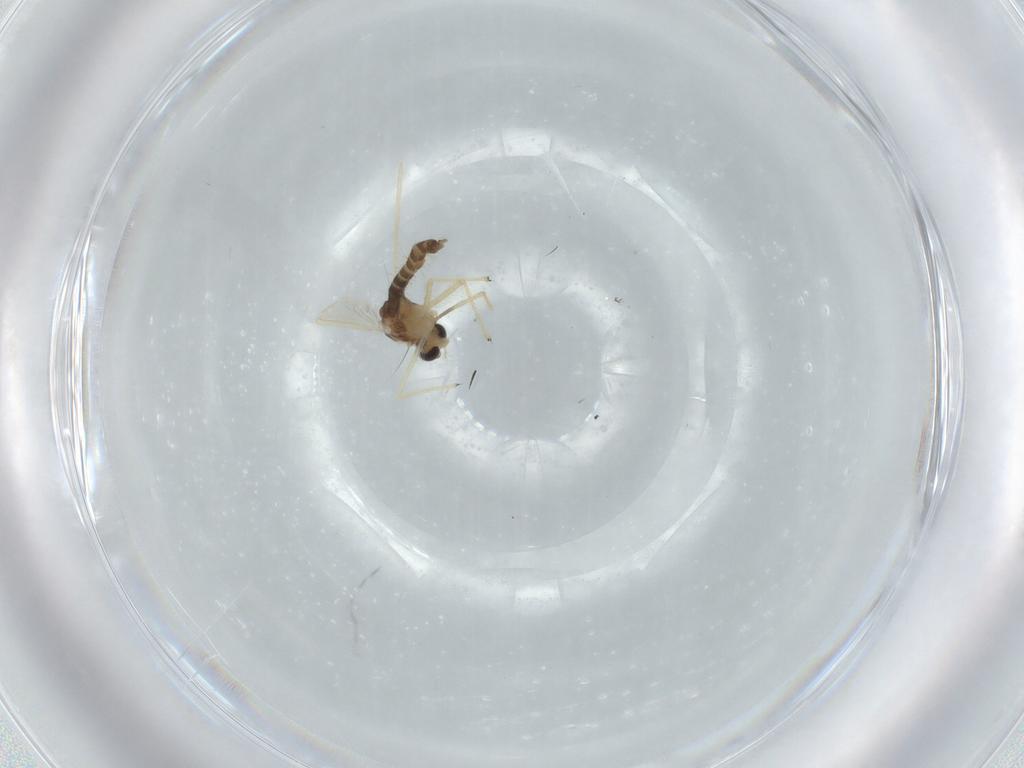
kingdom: Animalia
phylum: Arthropoda
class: Insecta
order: Diptera
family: Chironomidae
